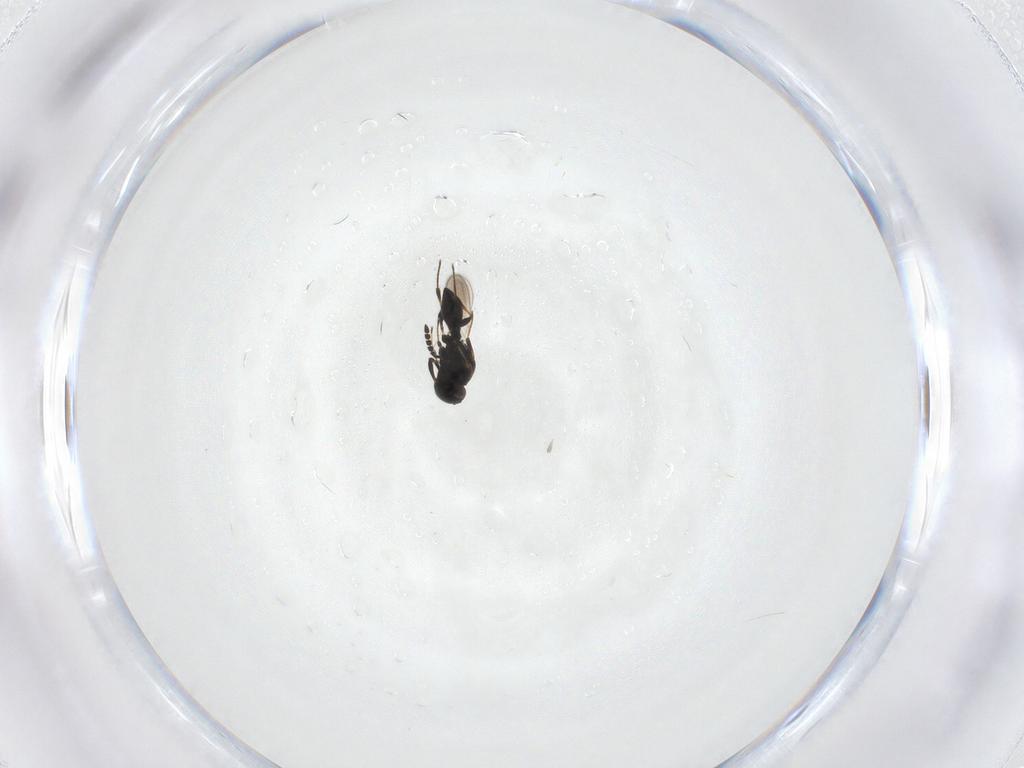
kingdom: Animalia
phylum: Arthropoda
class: Insecta
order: Hymenoptera
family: Platygastridae
